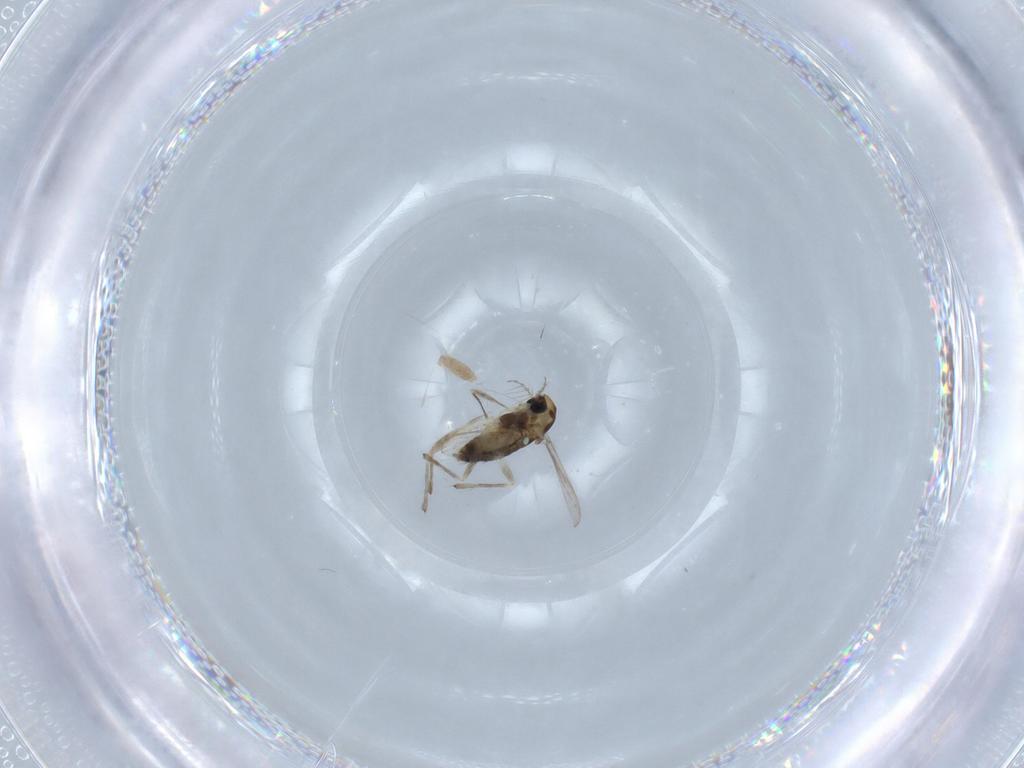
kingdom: Animalia
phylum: Arthropoda
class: Insecta
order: Diptera
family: Chironomidae
